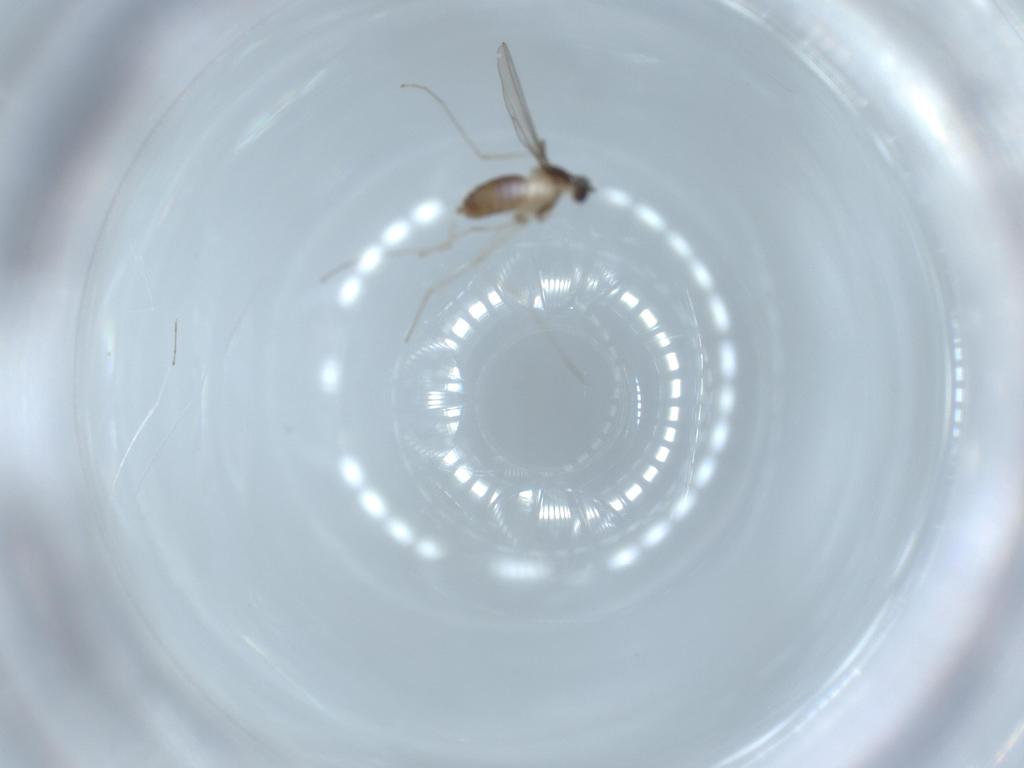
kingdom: Animalia
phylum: Arthropoda
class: Insecta
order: Diptera
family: Cecidomyiidae
